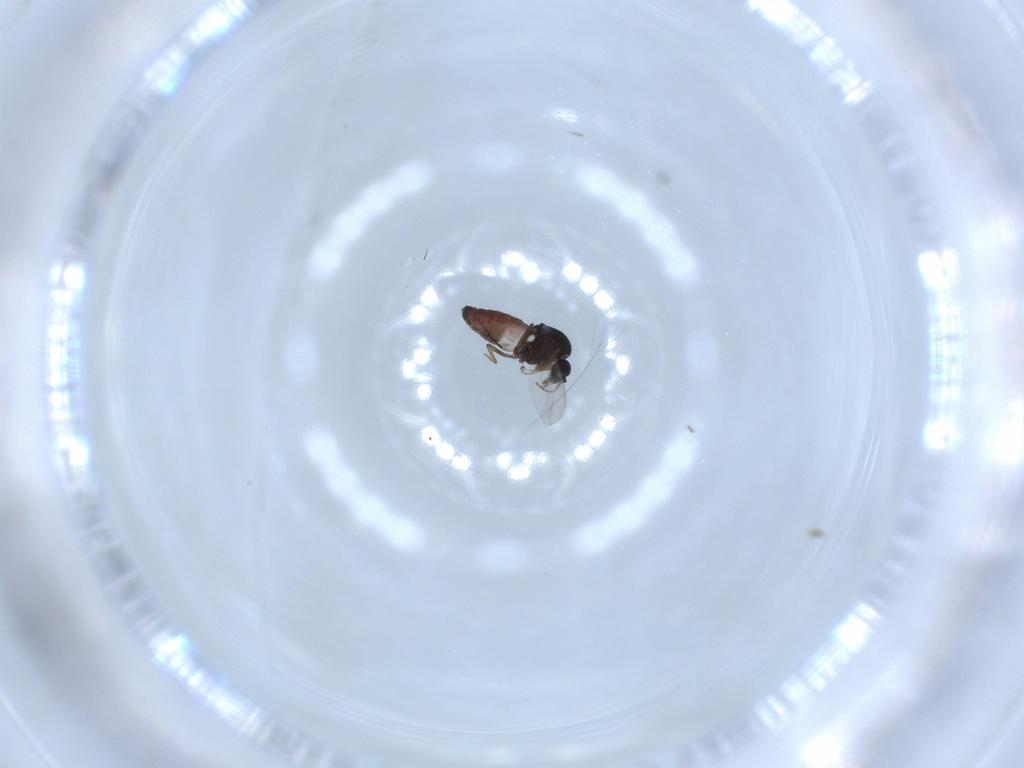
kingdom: Animalia
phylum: Arthropoda
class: Insecta
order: Diptera
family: Ceratopogonidae
